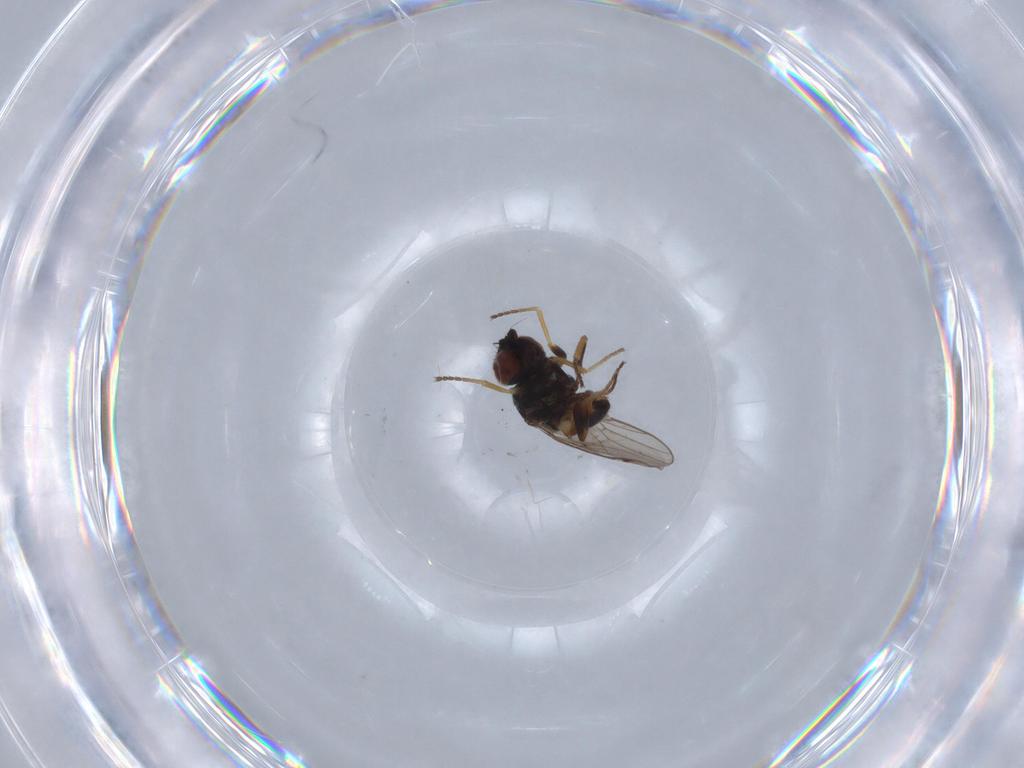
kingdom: Animalia
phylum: Arthropoda
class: Insecta
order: Diptera
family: Chloropidae
